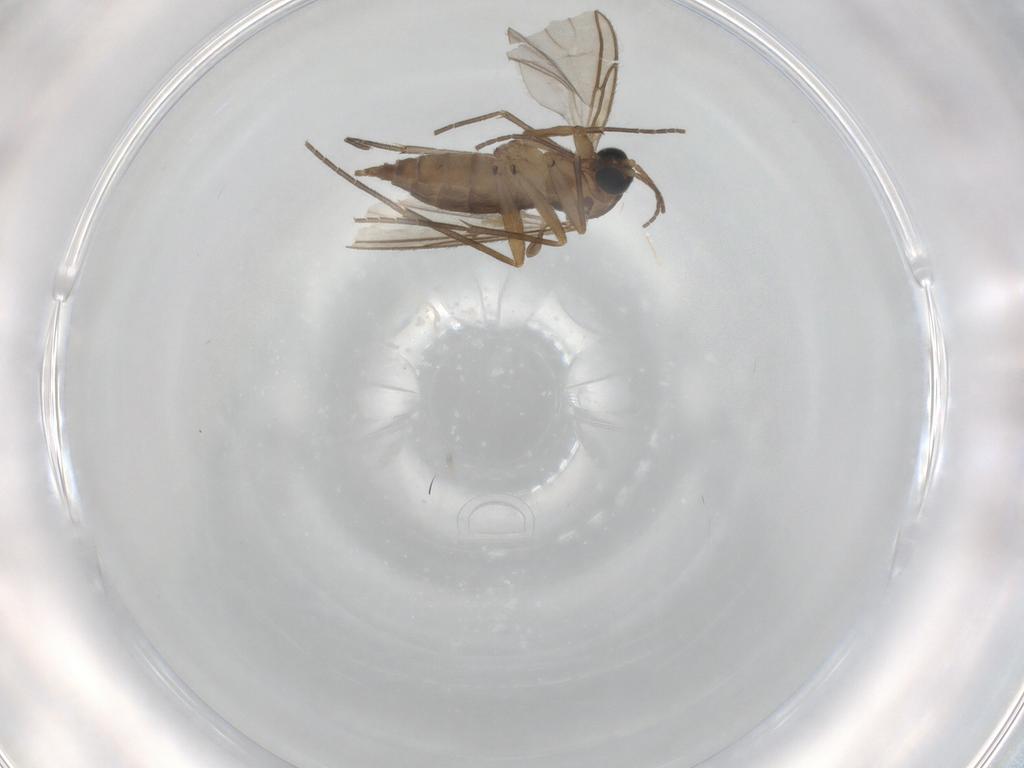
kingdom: Animalia
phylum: Arthropoda
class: Insecta
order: Diptera
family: Sciaridae
